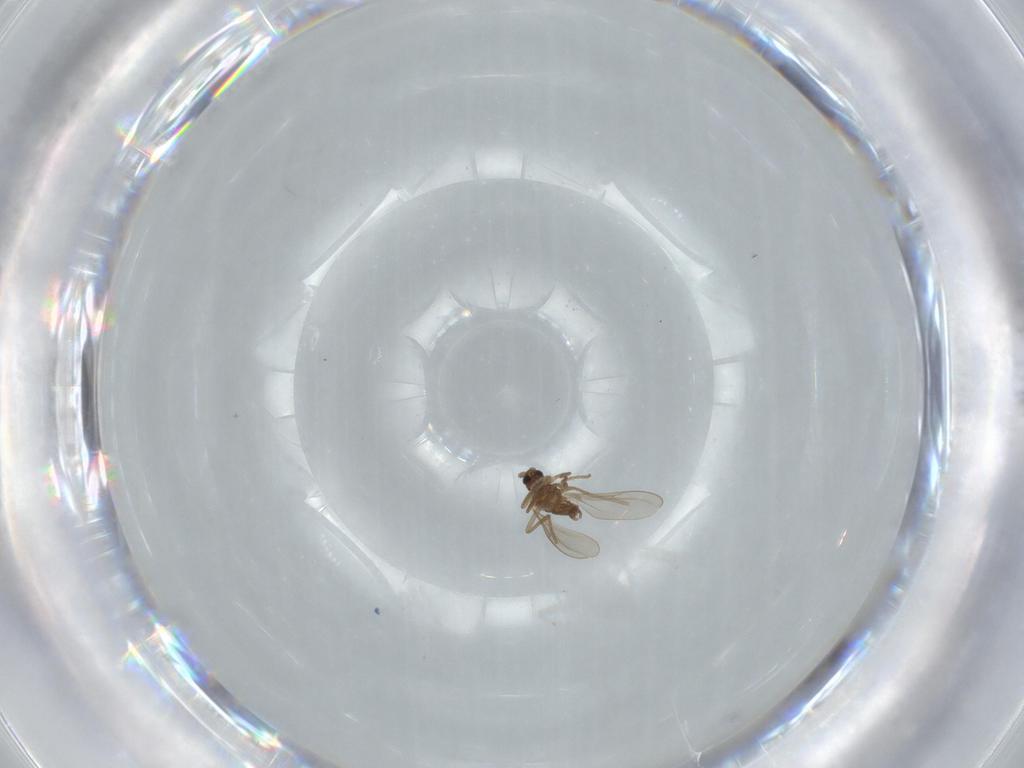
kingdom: Animalia
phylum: Arthropoda
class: Insecta
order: Diptera
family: Cecidomyiidae
